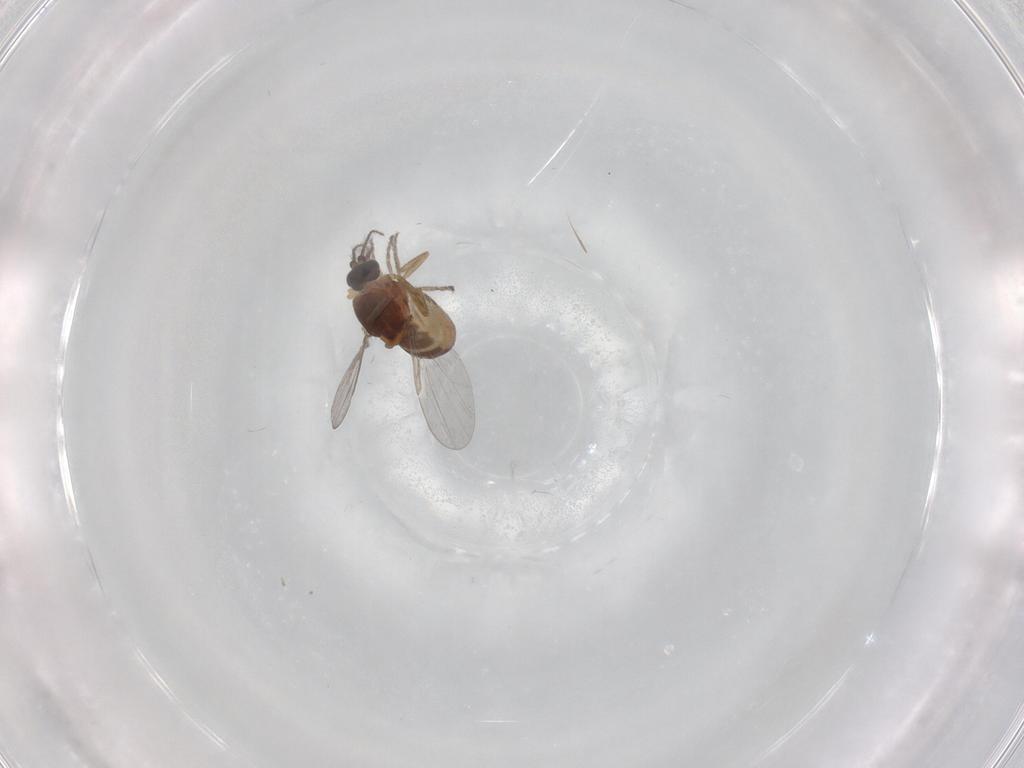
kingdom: Animalia
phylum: Arthropoda
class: Insecta
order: Diptera
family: Ceratopogonidae
